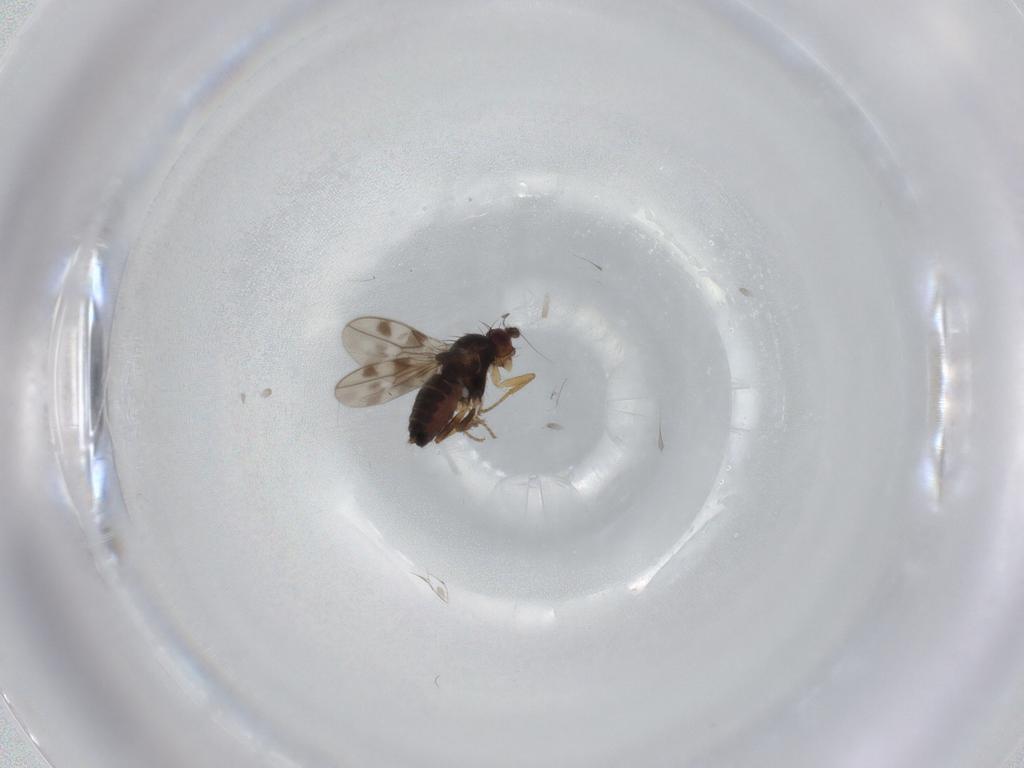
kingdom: Animalia
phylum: Arthropoda
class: Insecta
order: Diptera
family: Sphaeroceridae
